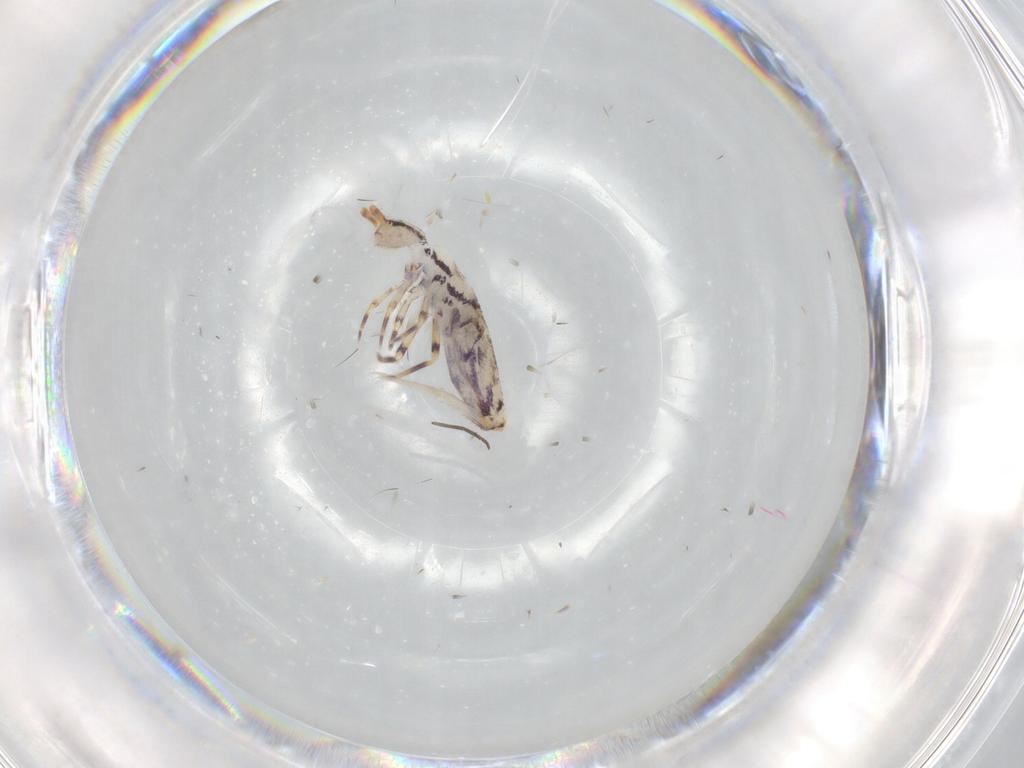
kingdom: Animalia
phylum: Arthropoda
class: Collembola
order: Entomobryomorpha
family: Entomobryidae
